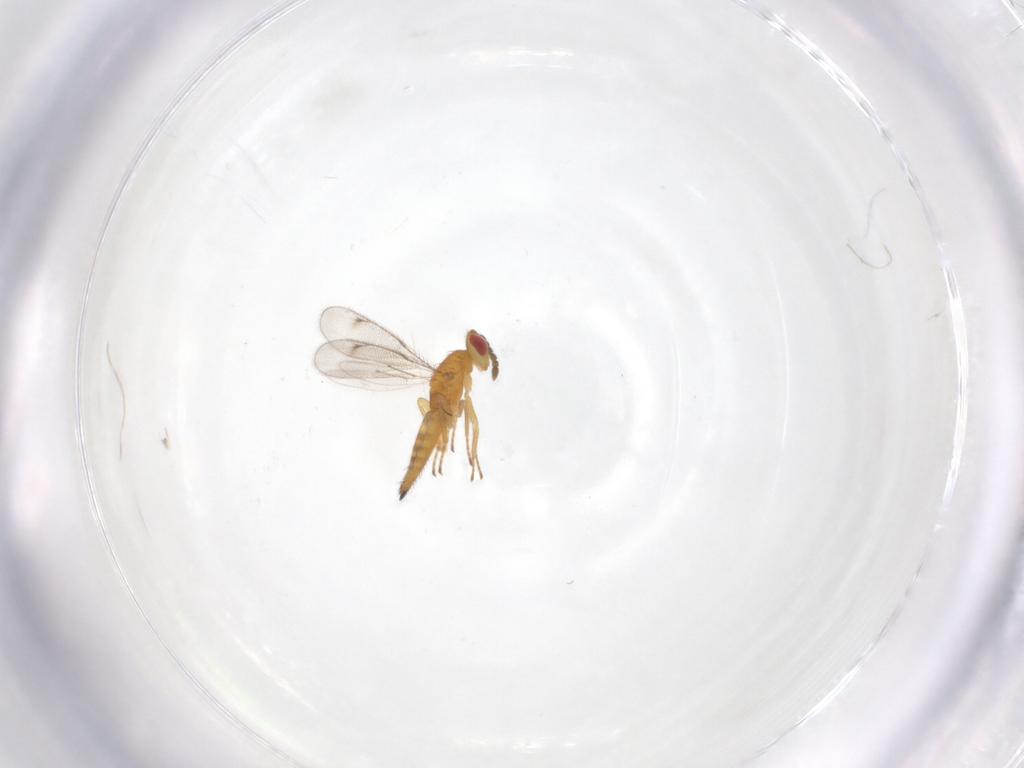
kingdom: Animalia
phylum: Arthropoda
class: Insecta
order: Hymenoptera
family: Eulophidae
